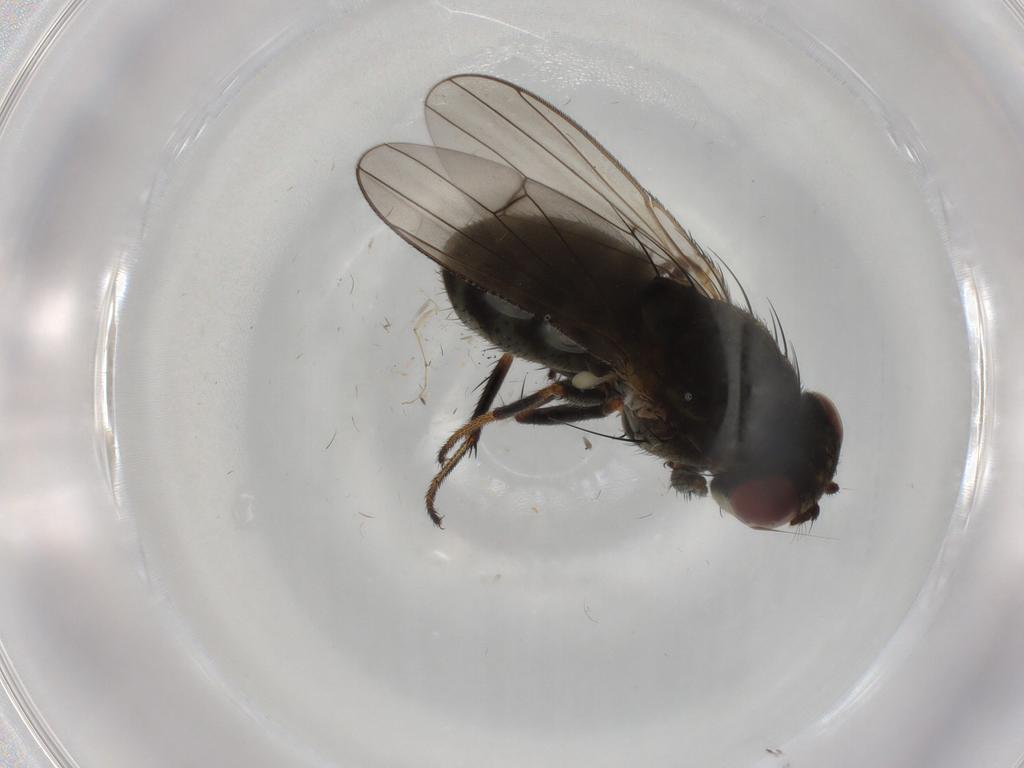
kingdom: Animalia
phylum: Arthropoda
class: Insecta
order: Diptera
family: Ephydridae
